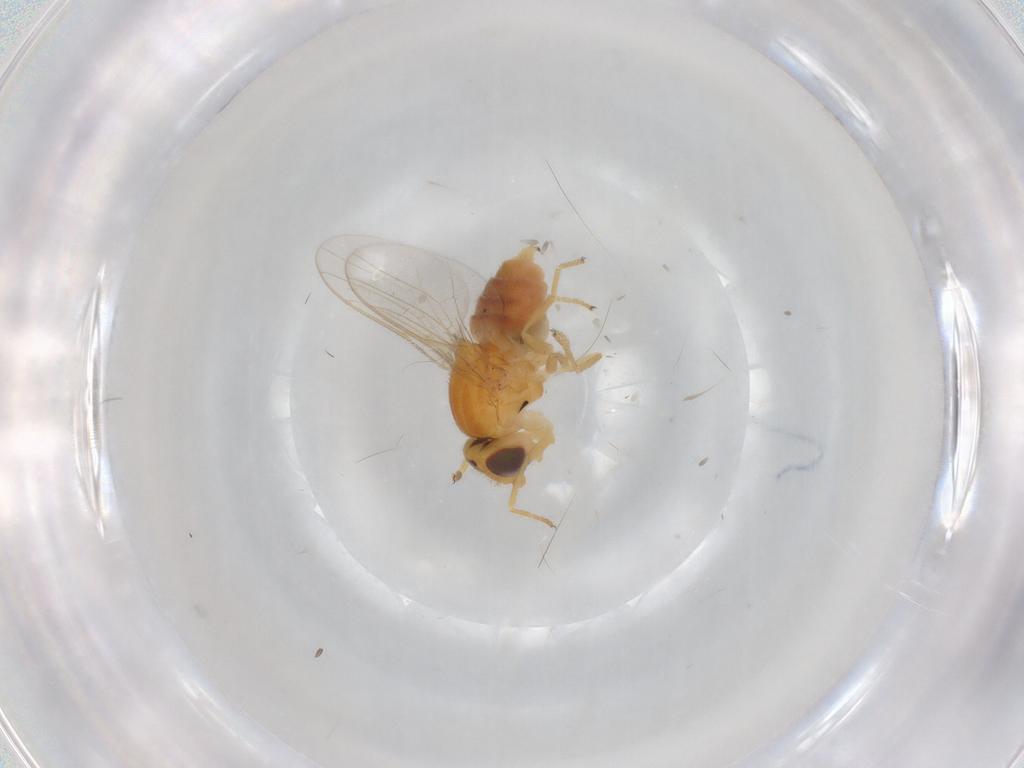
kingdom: Animalia
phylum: Arthropoda
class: Insecta
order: Diptera
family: Chloropidae
